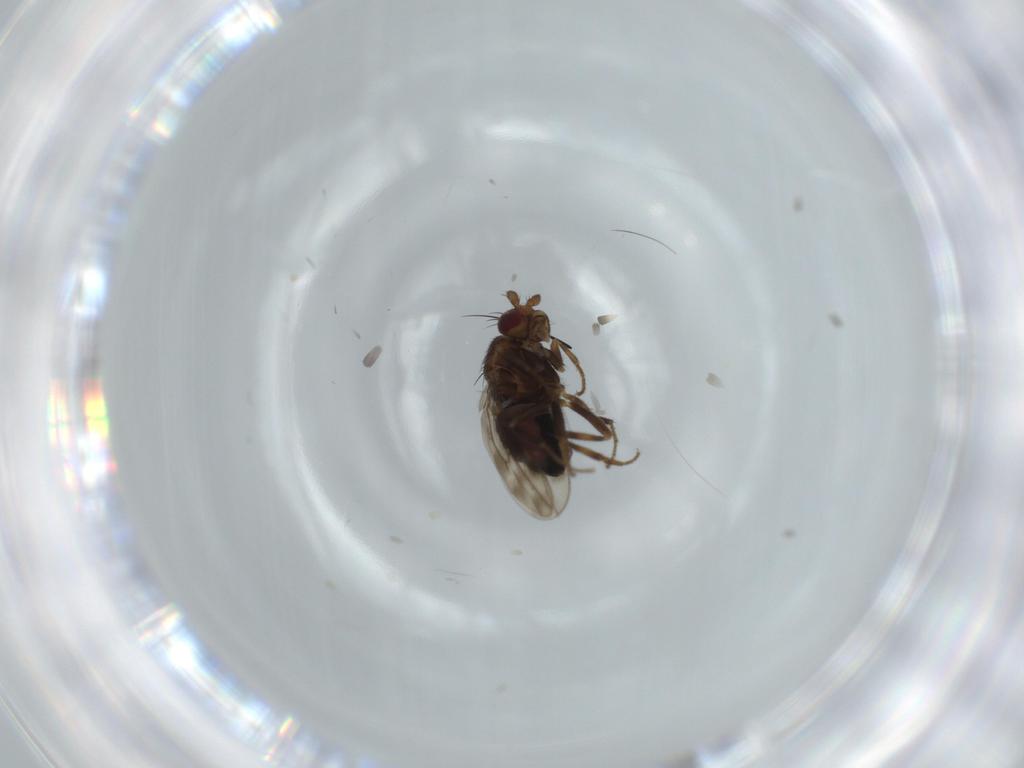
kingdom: Animalia
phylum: Arthropoda
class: Insecta
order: Diptera
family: Sphaeroceridae
